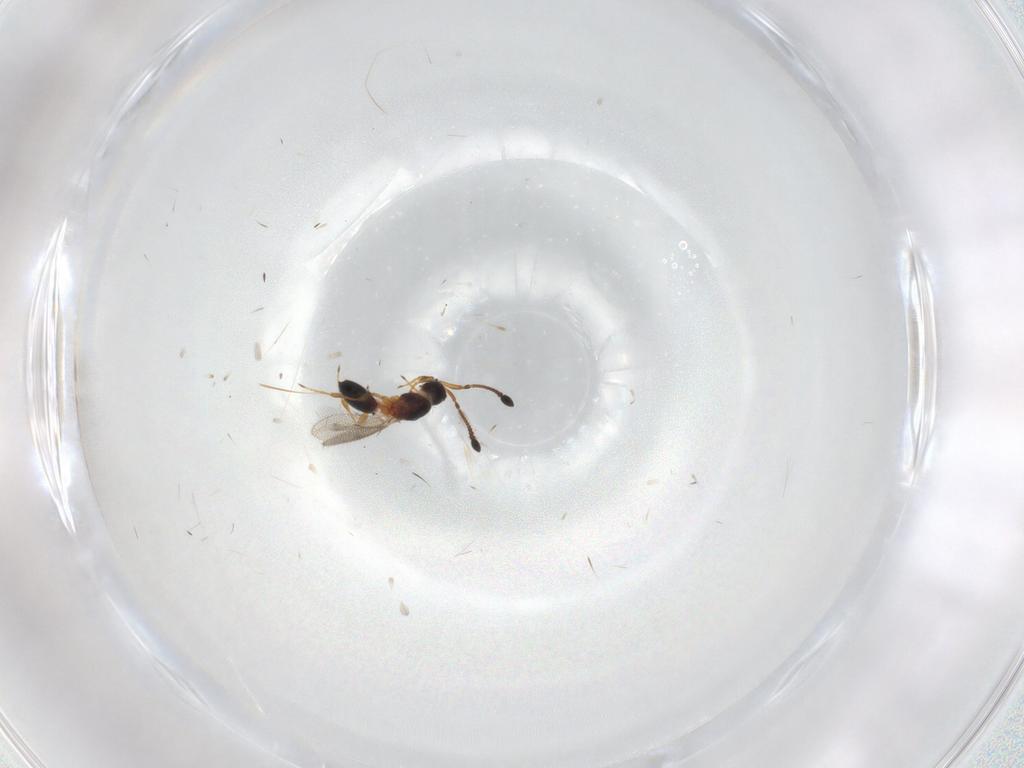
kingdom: Animalia
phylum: Arthropoda
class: Insecta
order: Hymenoptera
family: Diapriidae
